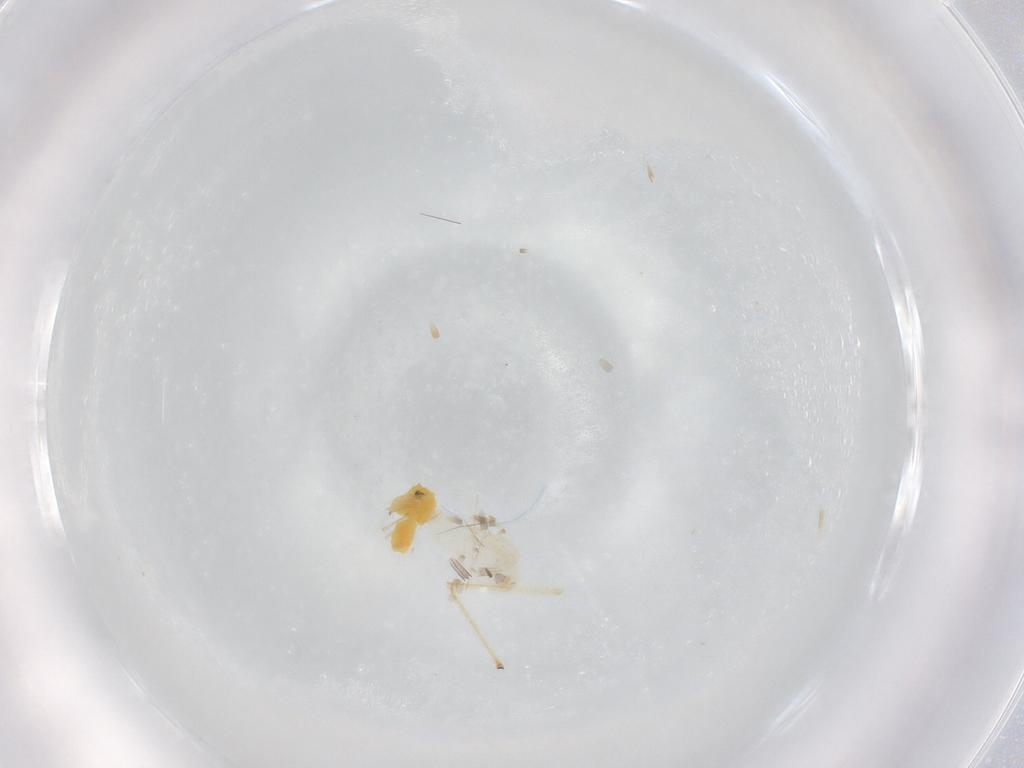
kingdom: Animalia
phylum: Arthropoda
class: Insecta
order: Hemiptera
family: Aleyrodidae
